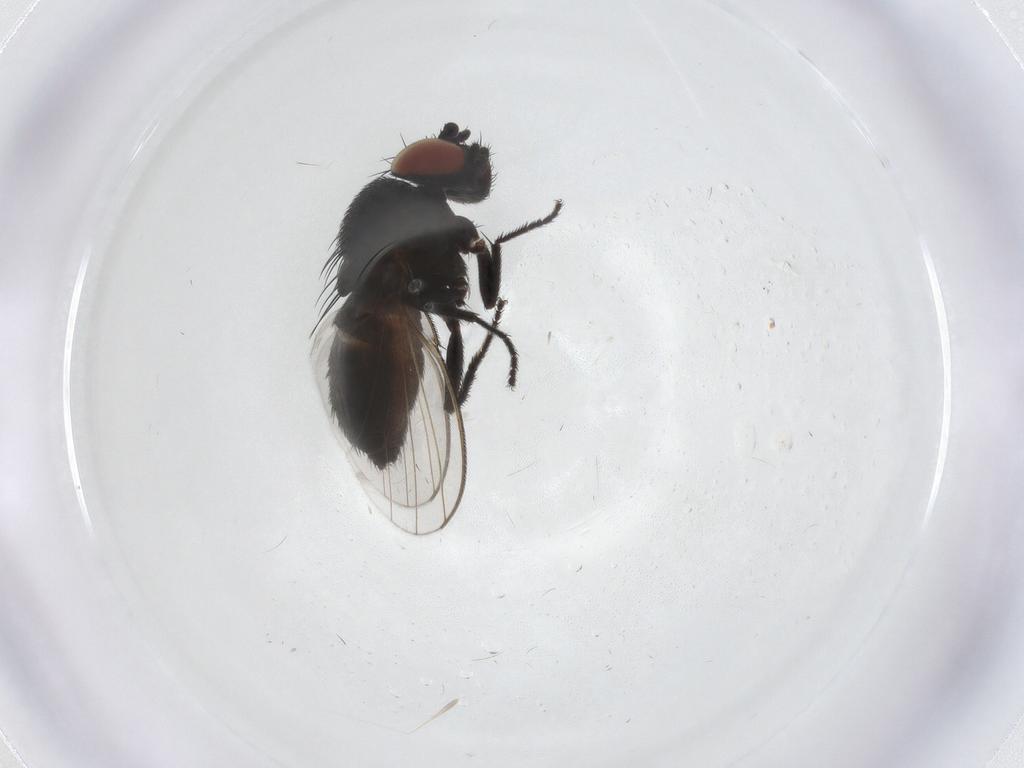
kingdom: Animalia
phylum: Arthropoda
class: Insecta
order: Diptera
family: Milichiidae
